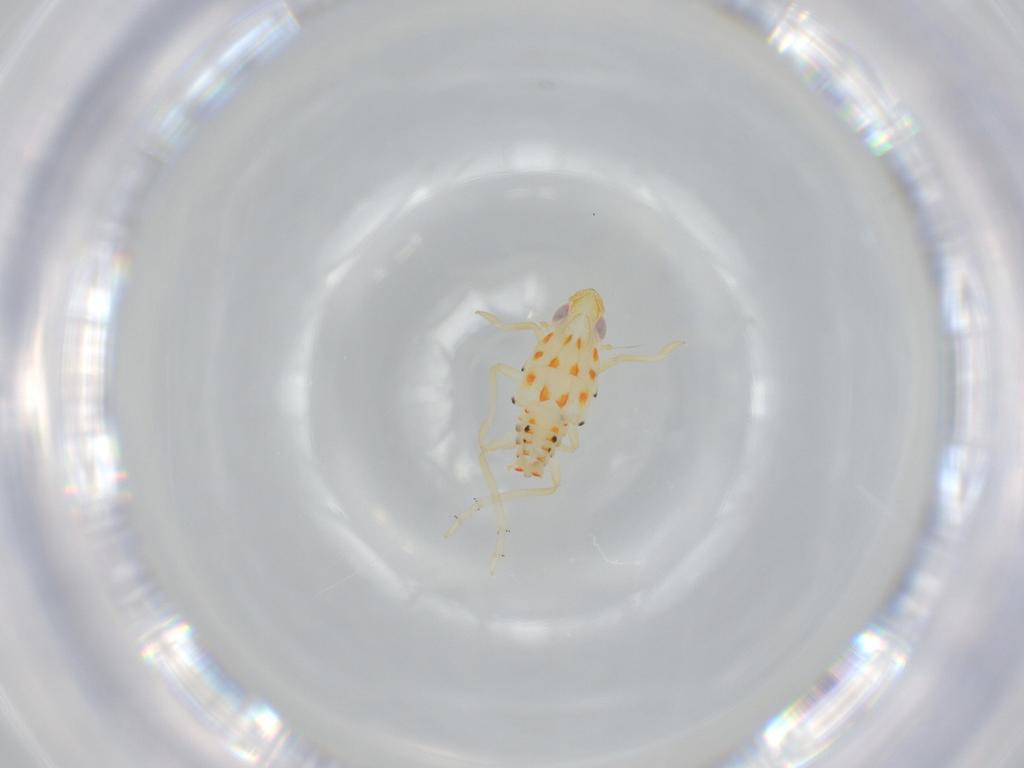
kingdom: Animalia
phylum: Arthropoda
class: Insecta
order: Hemiptera
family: Tropiduchidae
